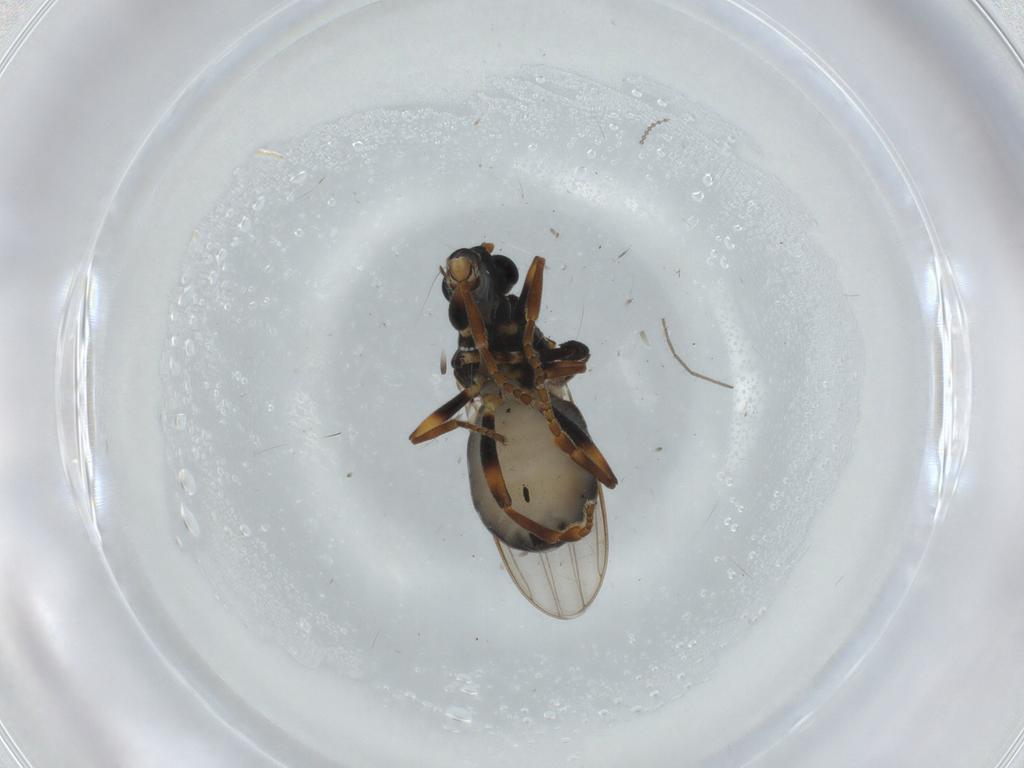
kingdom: Animalia
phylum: Arthropoda
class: Insecta
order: Diptera
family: Sphaeroceridae
